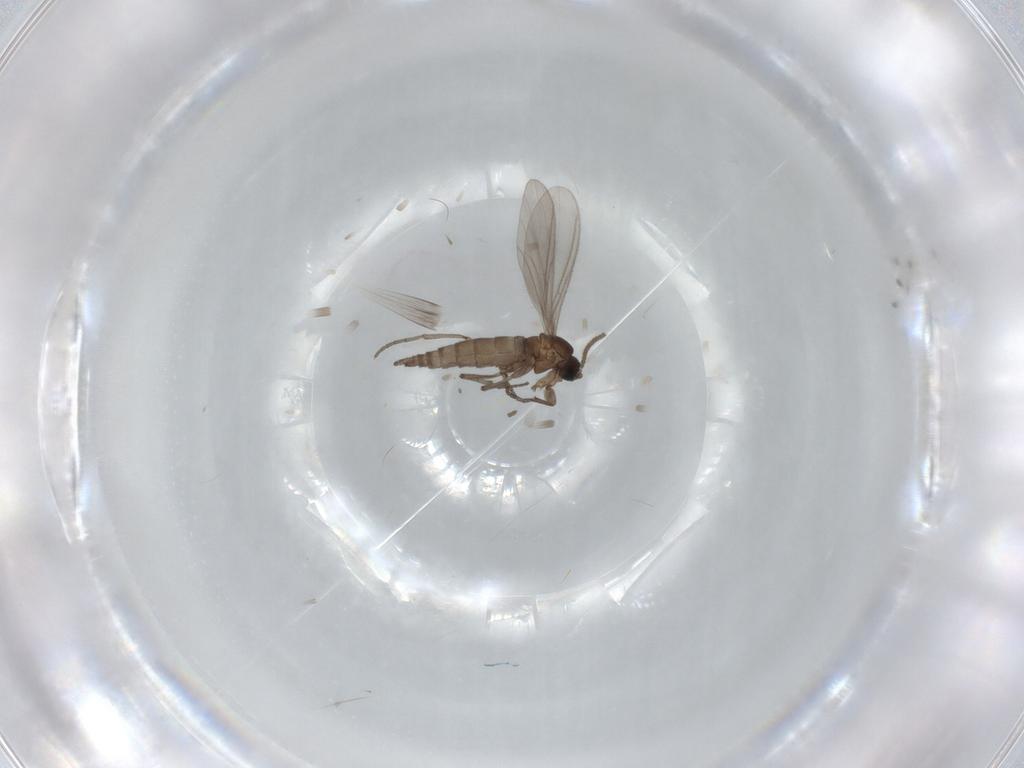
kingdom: Animalia
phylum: Arthropoda
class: Insecta
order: Diptera
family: Sciaridae
